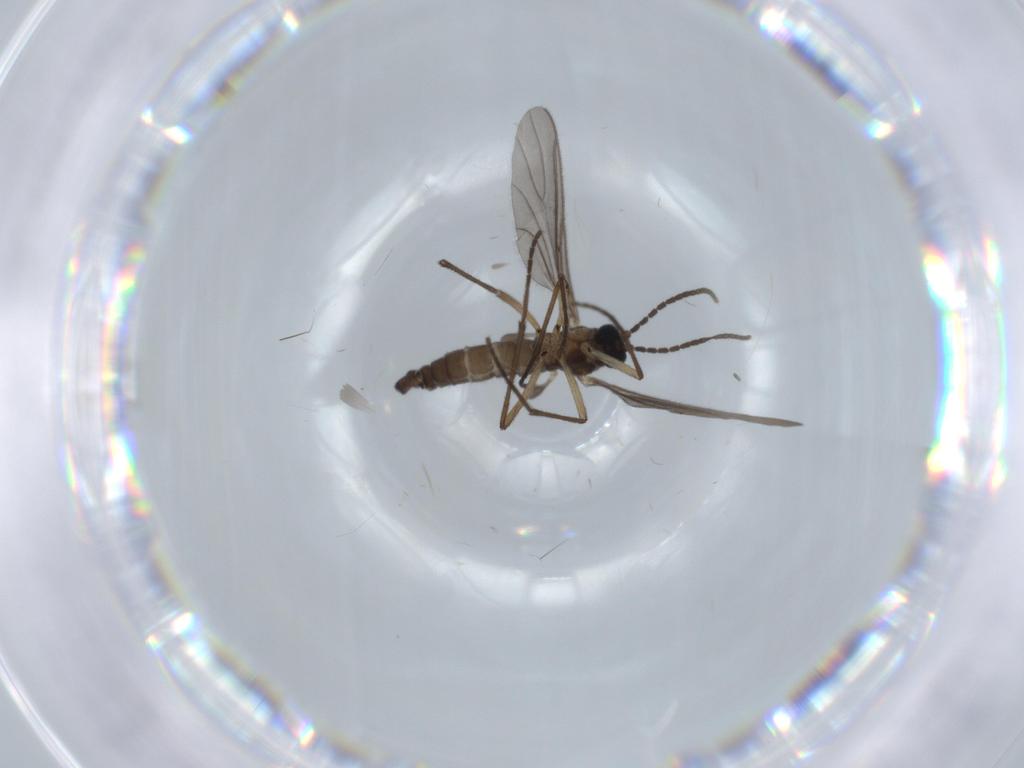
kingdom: Animalia
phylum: Arthropoda
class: Insecta
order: Diptera
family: Sciaridae
